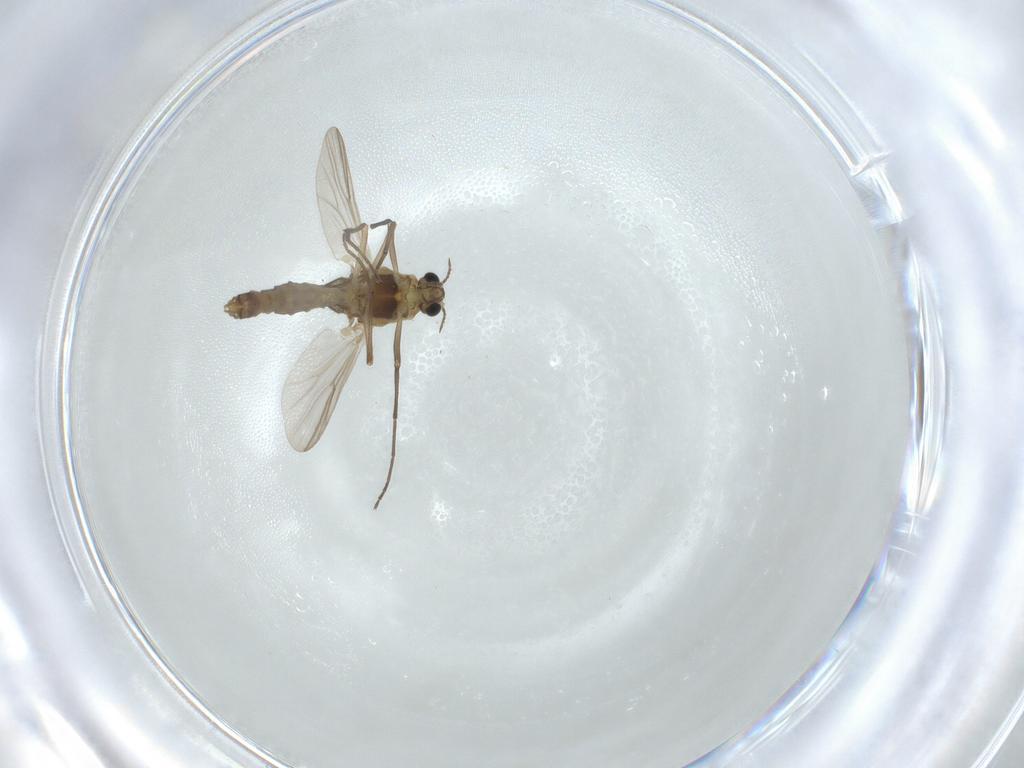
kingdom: Animalia
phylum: Arthropoda
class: Insecta
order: Diptera
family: Chironomidae
